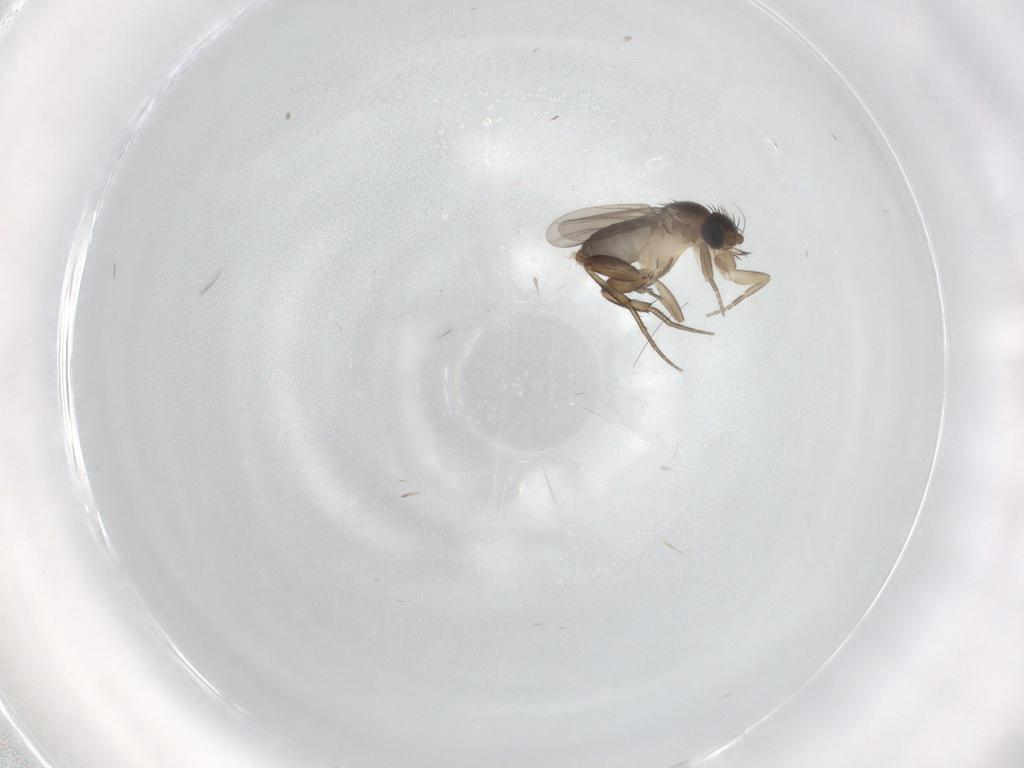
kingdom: Animalia
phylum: Arthropoda
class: Insecta
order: Diptera
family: Phoridae
